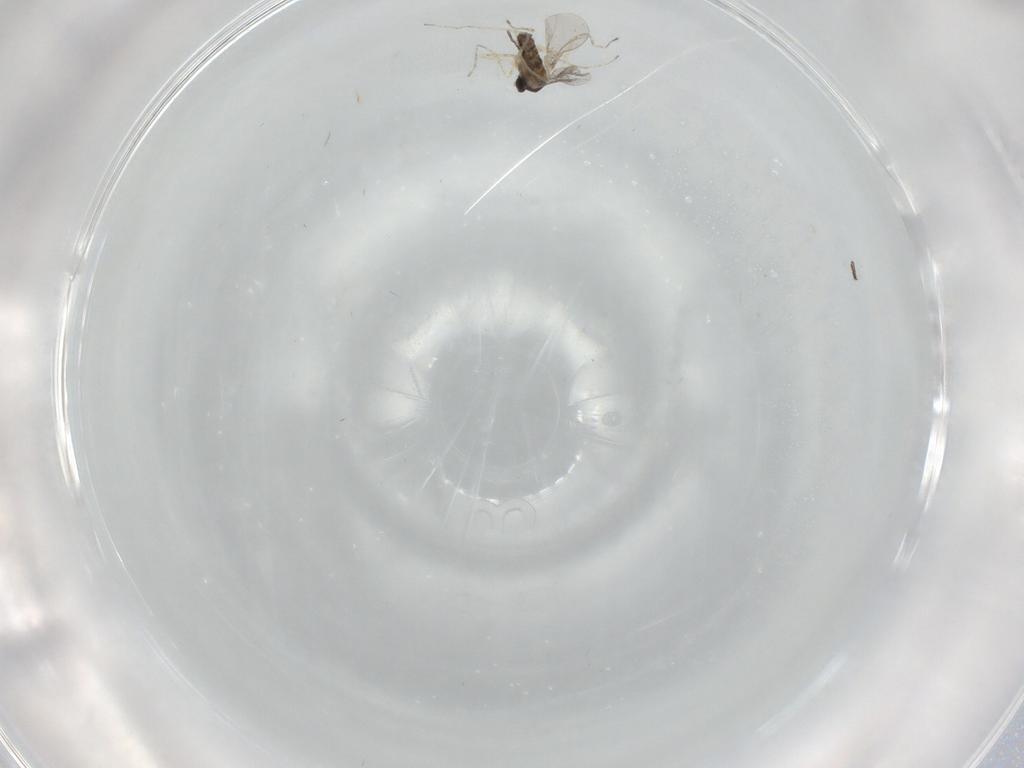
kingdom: Animalia
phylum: Arthropoda
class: Insecta
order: Diptera
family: Dolichopodidae
